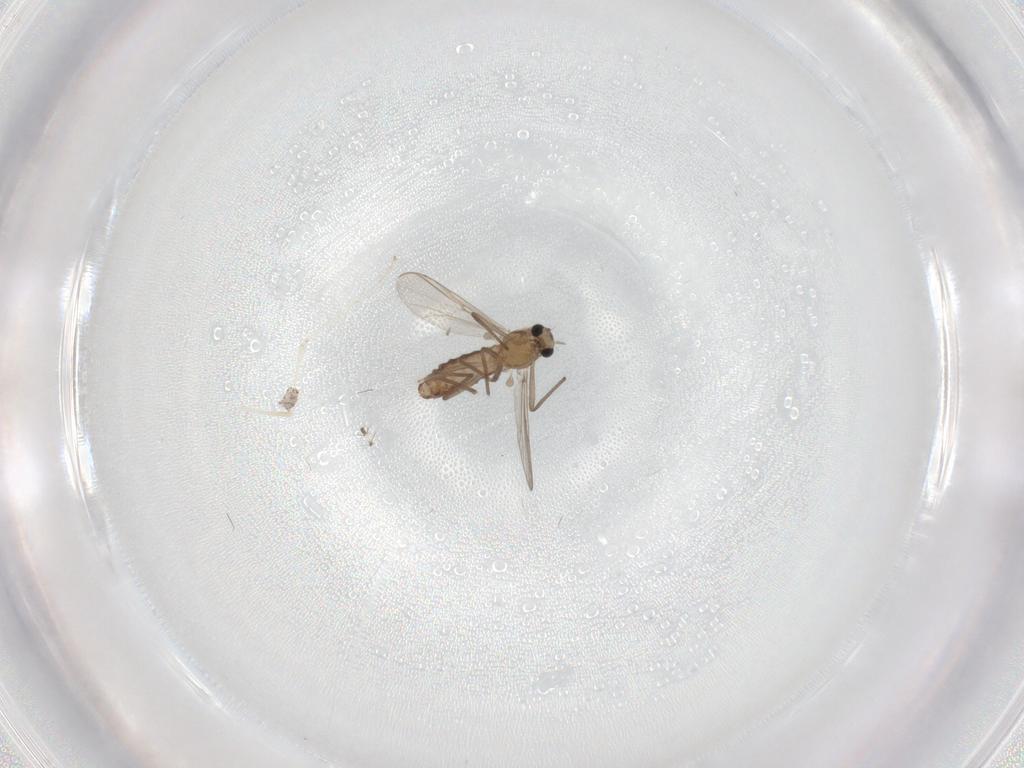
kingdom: Animalia
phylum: Arthropoda
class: Insecta
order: Diptera
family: Chironomidae
